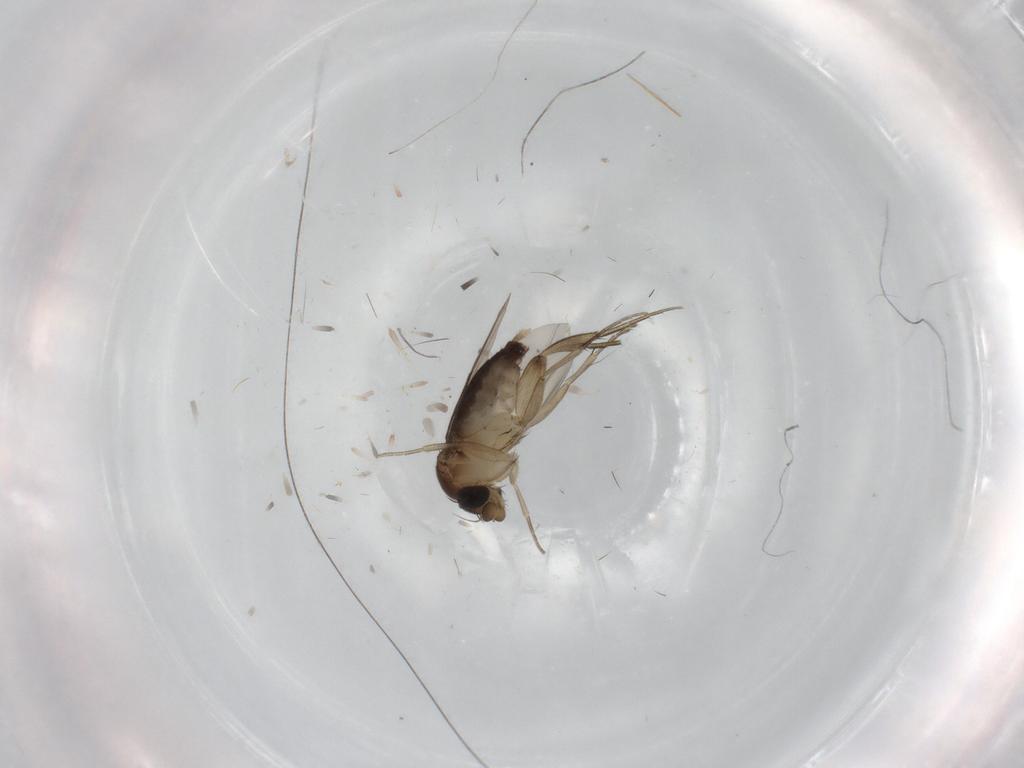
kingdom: Animalia
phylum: Arthropoda
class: Insecta
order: Diptera
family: Phoridae
